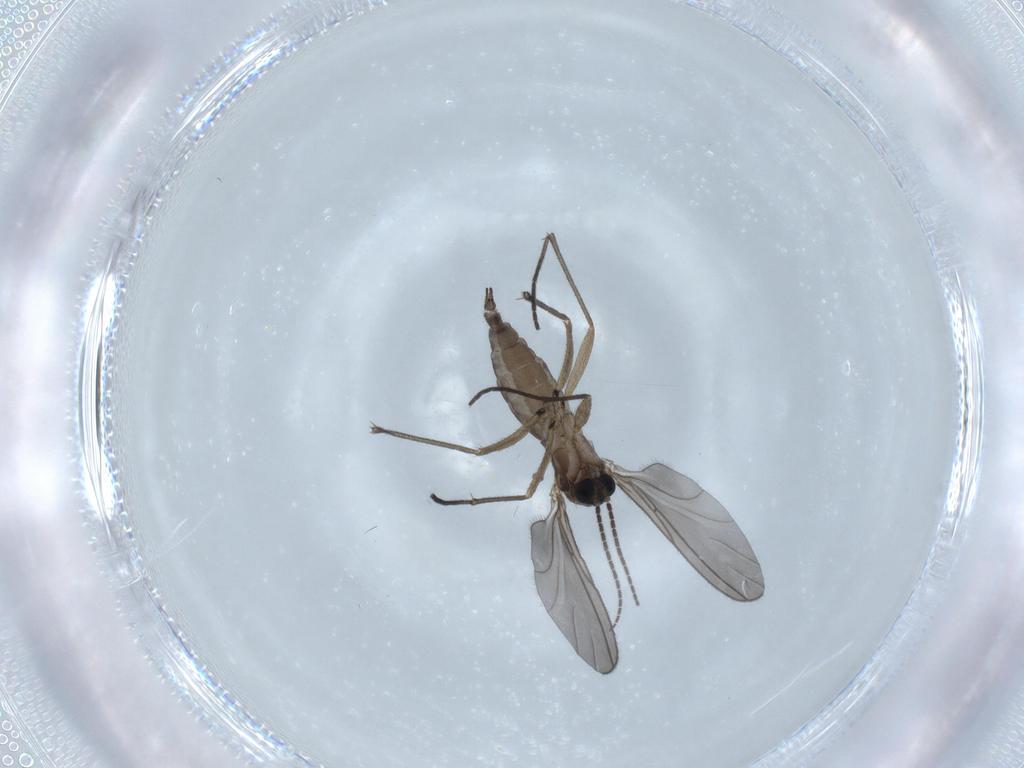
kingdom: Animalia
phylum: Arthropoda
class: Insecta
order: Diptera
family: Sciaridae
